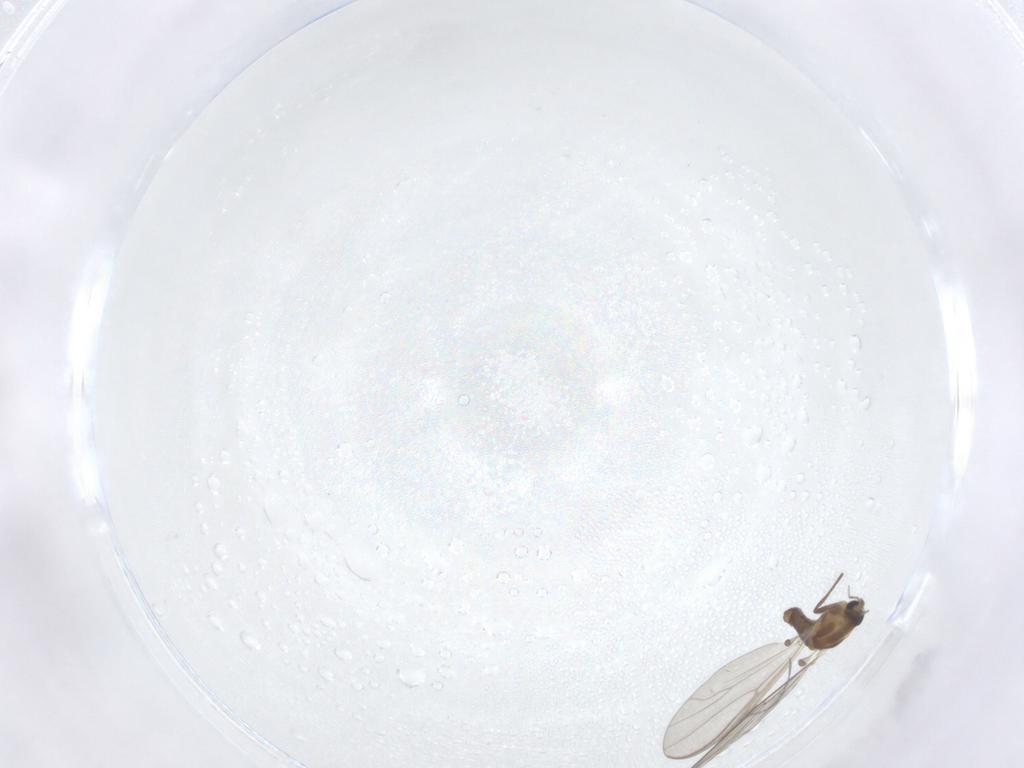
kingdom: Animalia
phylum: Arthropoda
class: Insecta
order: Diptera
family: Chironomidae
